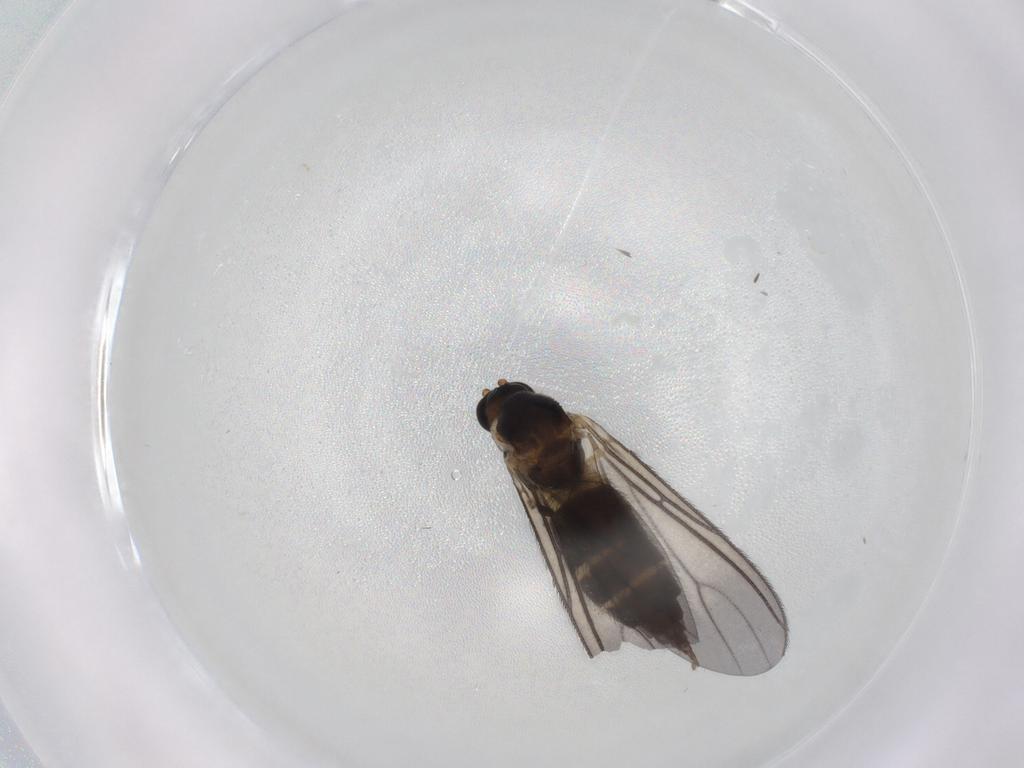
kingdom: Animalia
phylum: Arthropoda
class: Insecta
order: Diptera
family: Sciaridae
